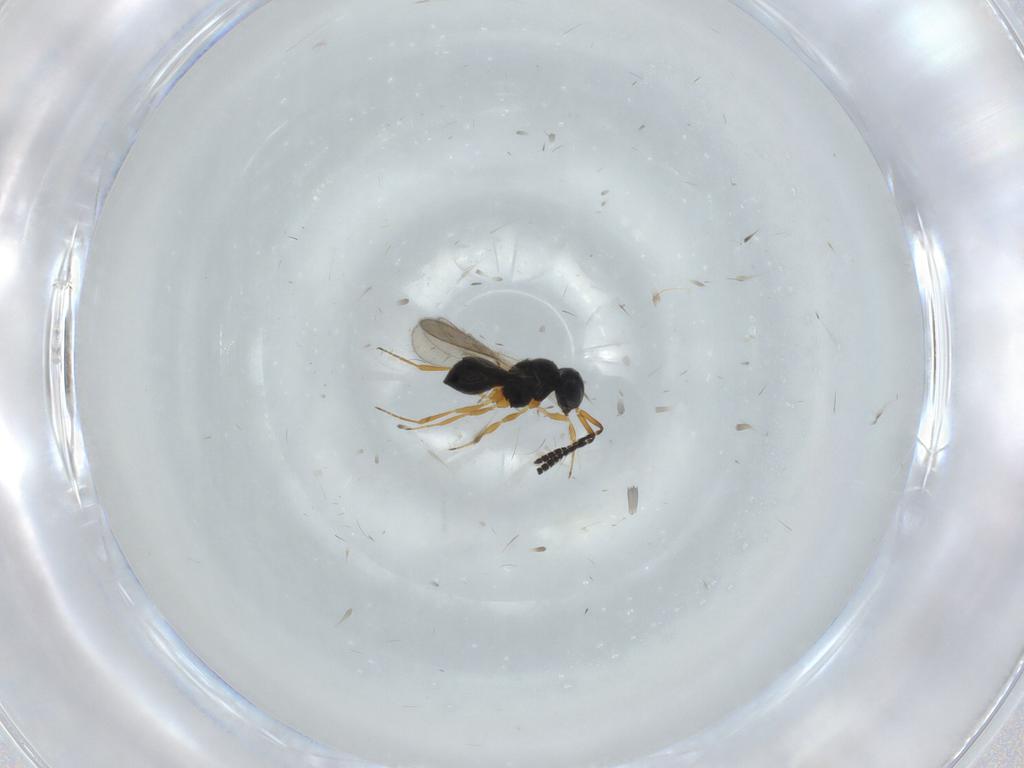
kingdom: Animalia
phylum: Arthropoda
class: Insecta
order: Hymenoptera
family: Scelionidae
